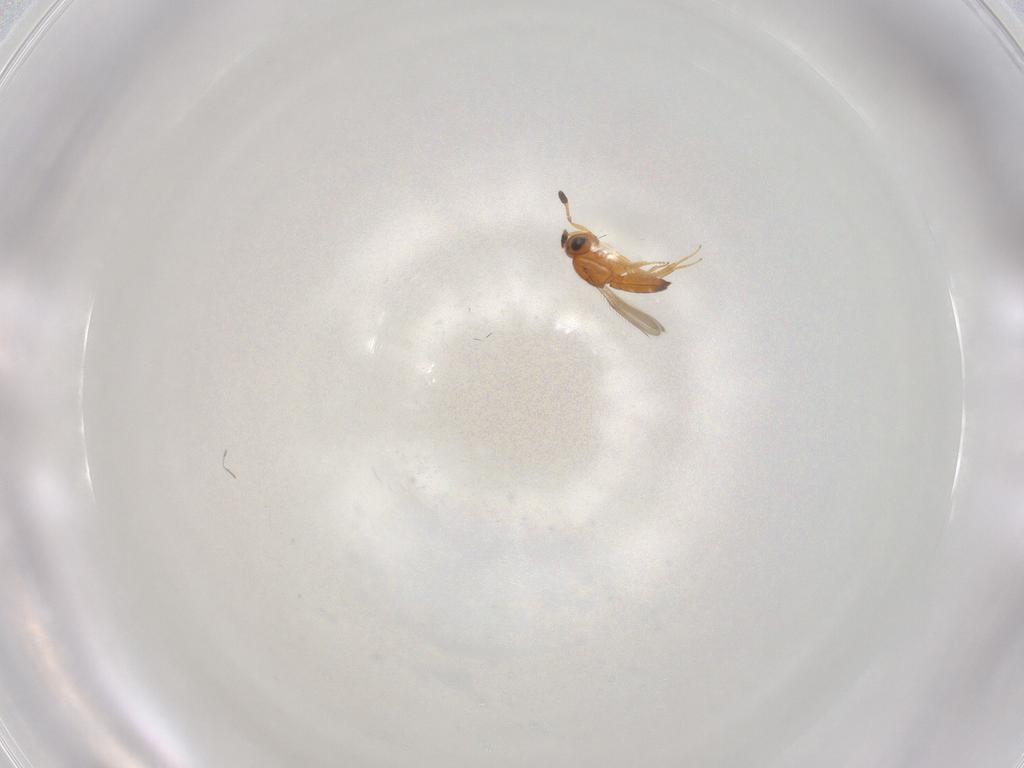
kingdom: Animalia
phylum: Arthropoda
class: Insecta
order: Hymenoptera
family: Scelionidae
